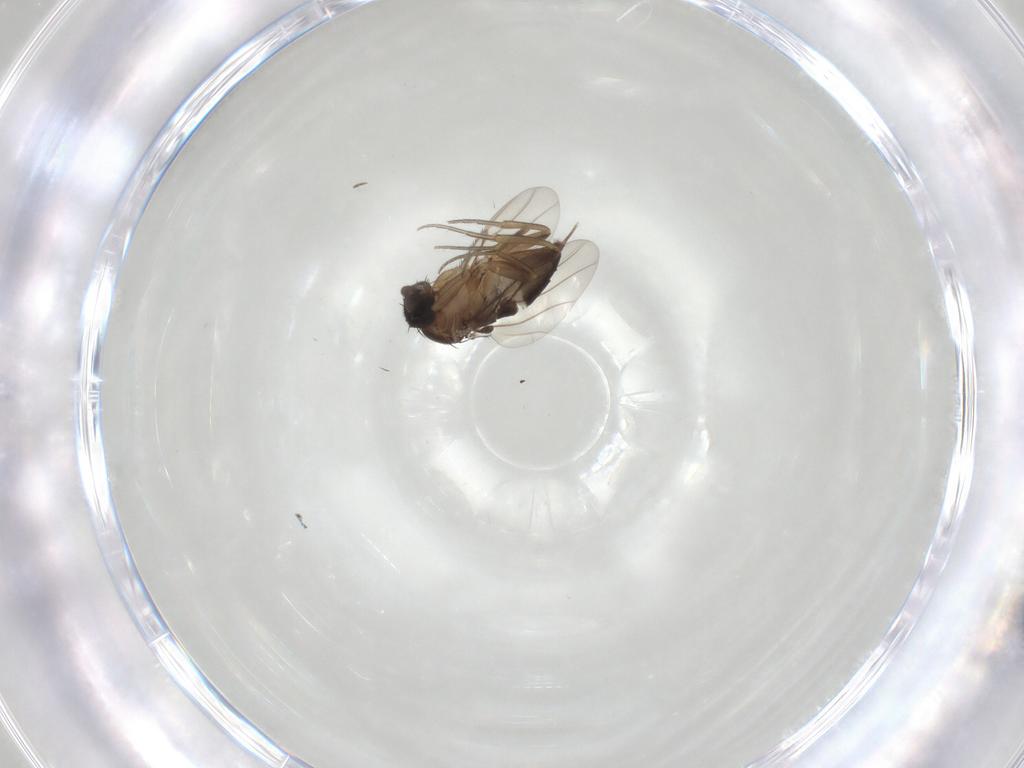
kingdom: Animalia
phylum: Arthropoda
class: Insecta
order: Diptera
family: Phoridae
